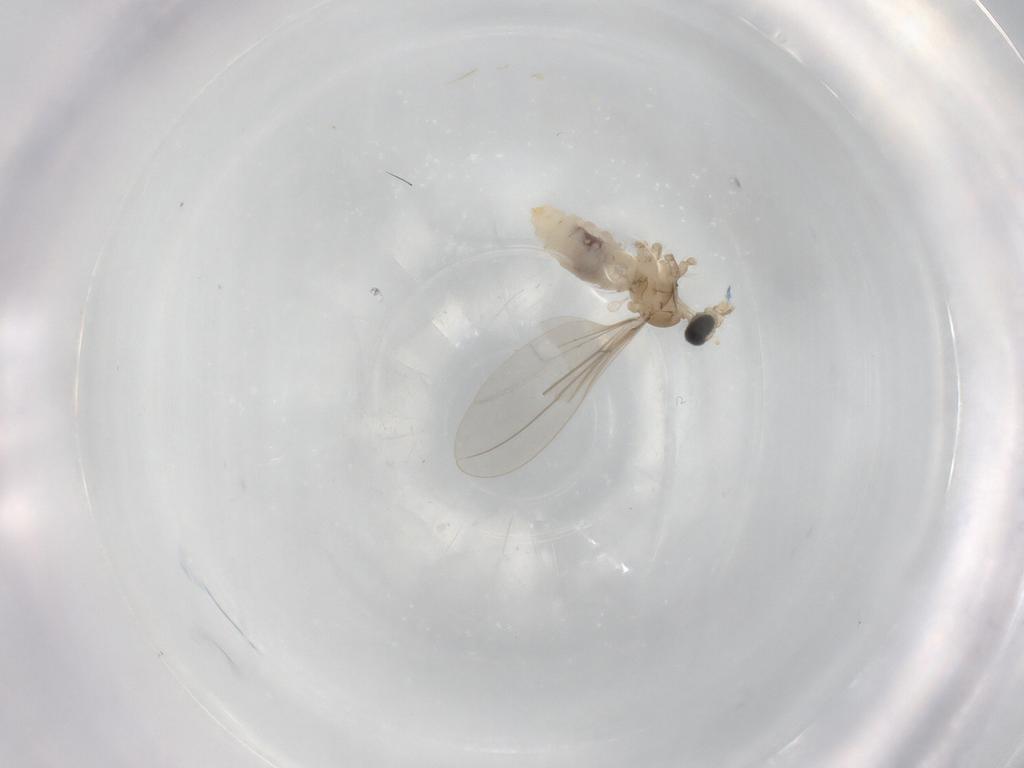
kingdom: Animalia
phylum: Arthropoda
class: Insecta
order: Diptera
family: Cecidomyiidae
